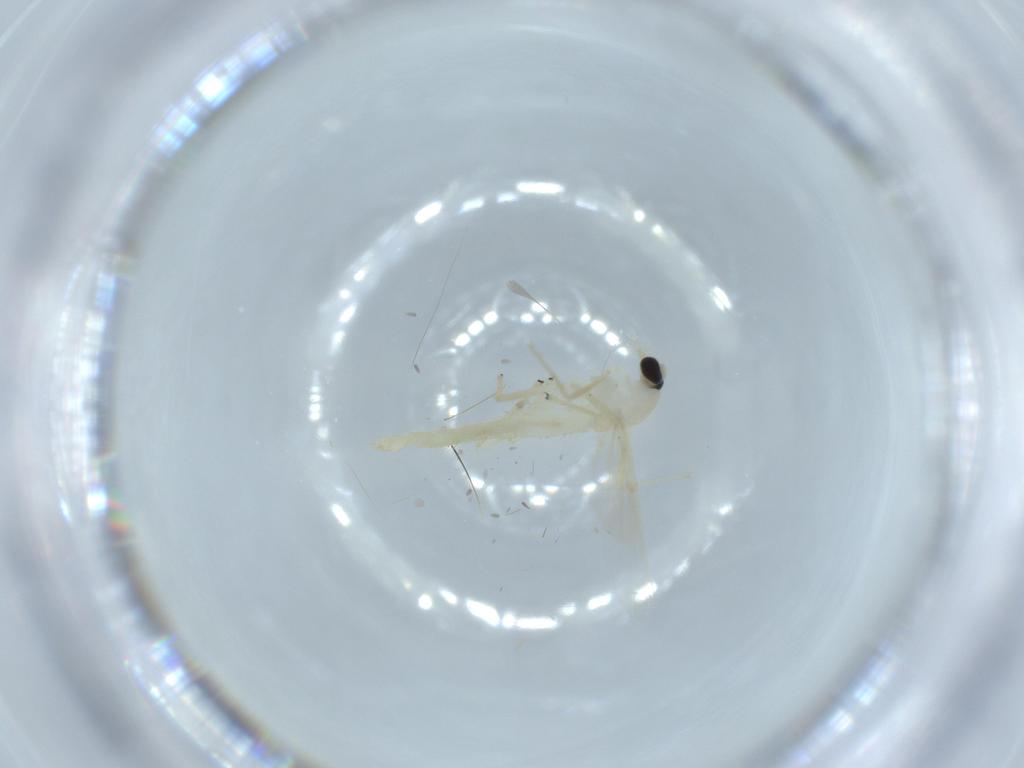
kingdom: Animalia
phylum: Arthropoda
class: Insecta
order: Diptera
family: Chironomidae
